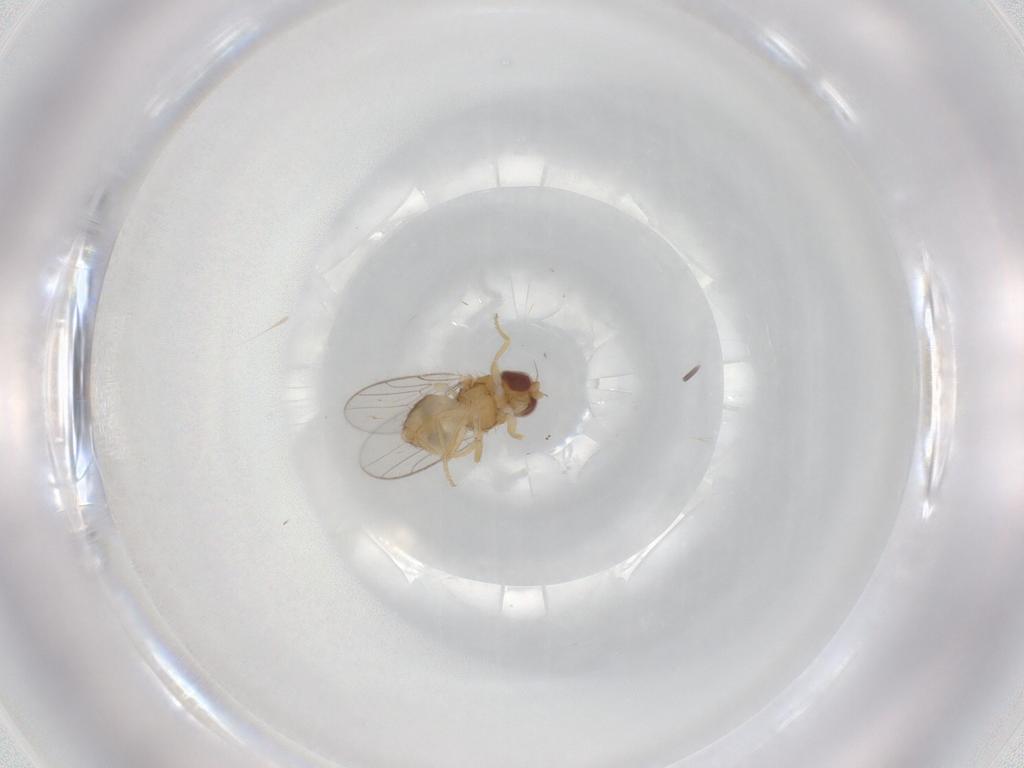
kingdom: Animalia
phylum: Arthropoda
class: Insecta
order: Diptera
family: Chloropidae
